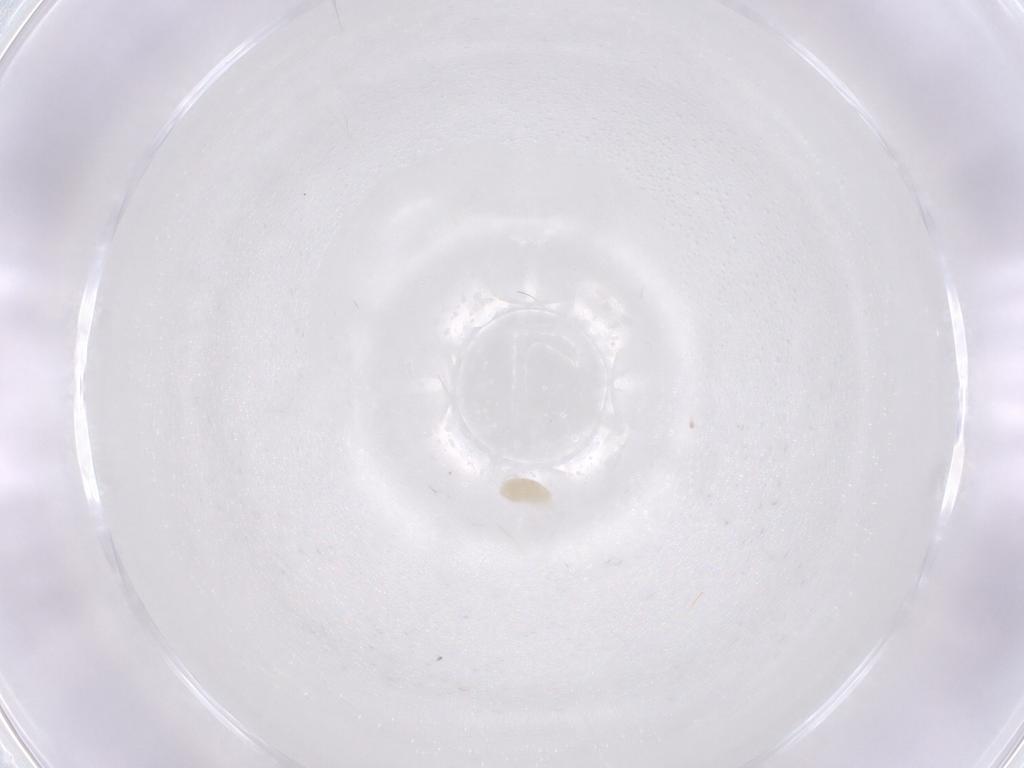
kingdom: Animalia
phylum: Arthropoda
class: Arachnida
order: Trombidiformes
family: Eupodidae
